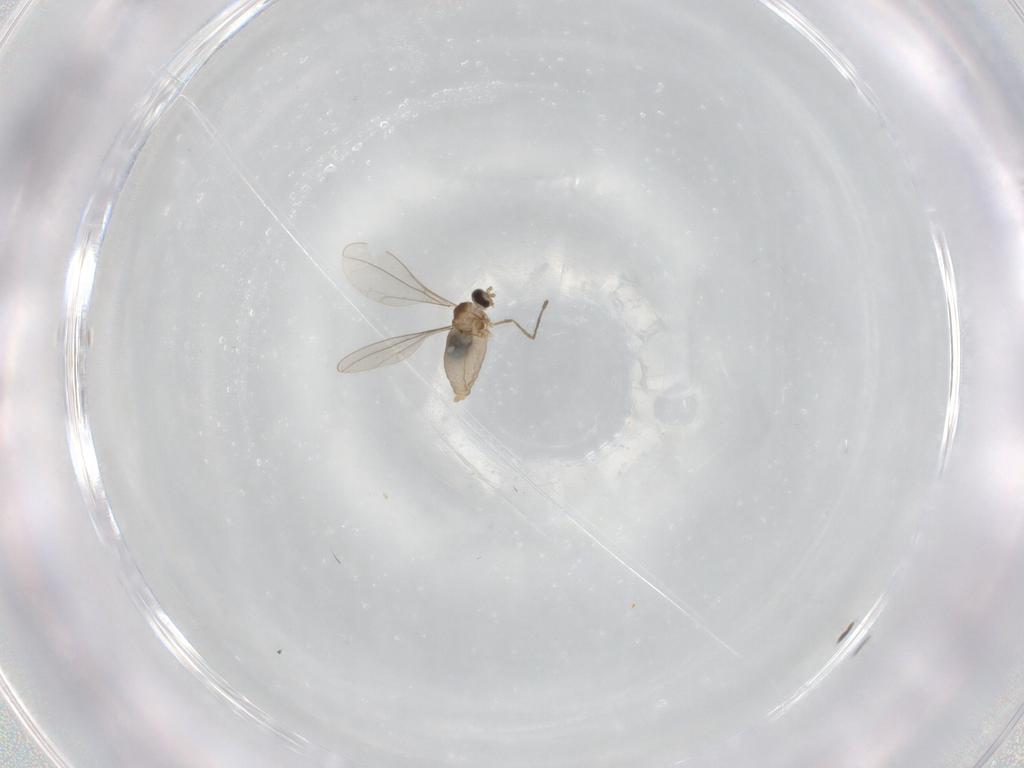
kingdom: Animalia
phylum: Arthropoda
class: Insecta
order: Diptera
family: Cecidomyiidae
